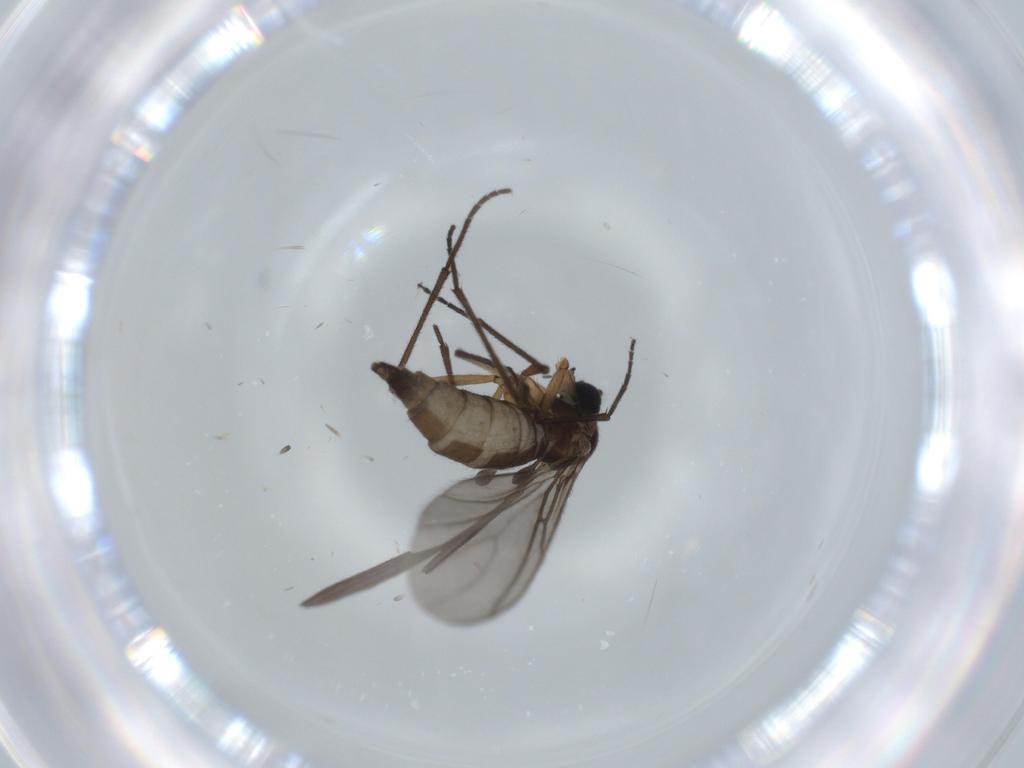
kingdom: Animalia
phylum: Arthropoda
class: Insecta
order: Diptera
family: Sciaridae
